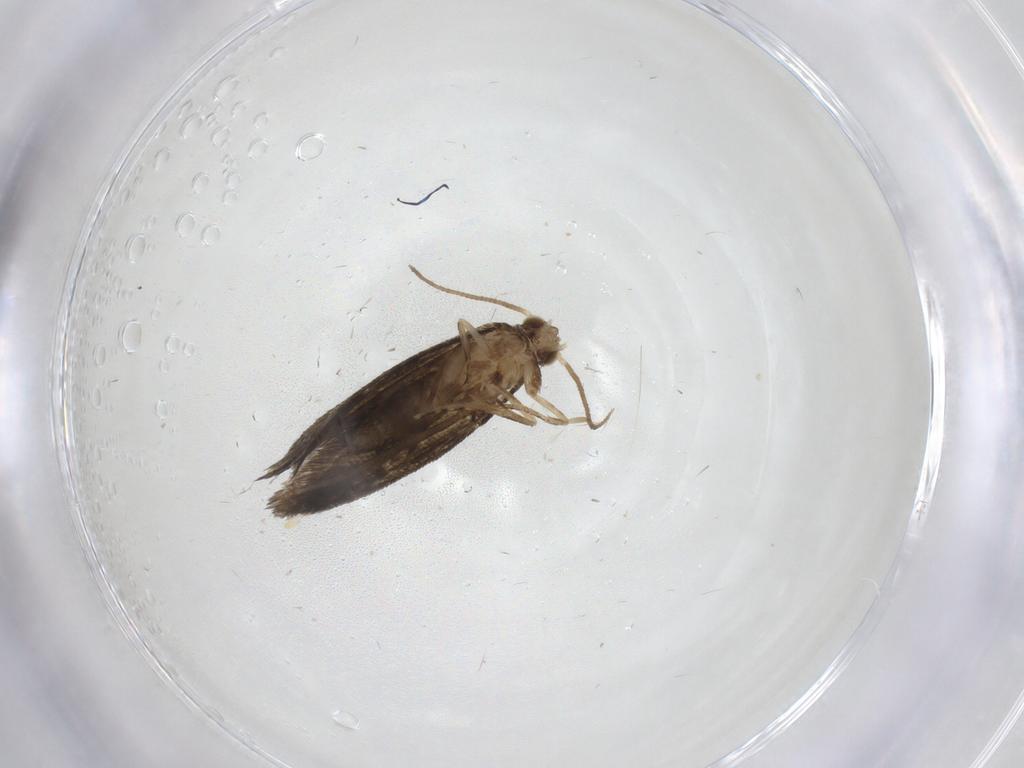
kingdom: Animalia
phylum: Arthropoda
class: Insecta
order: Lepidoptera
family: Tineidae
